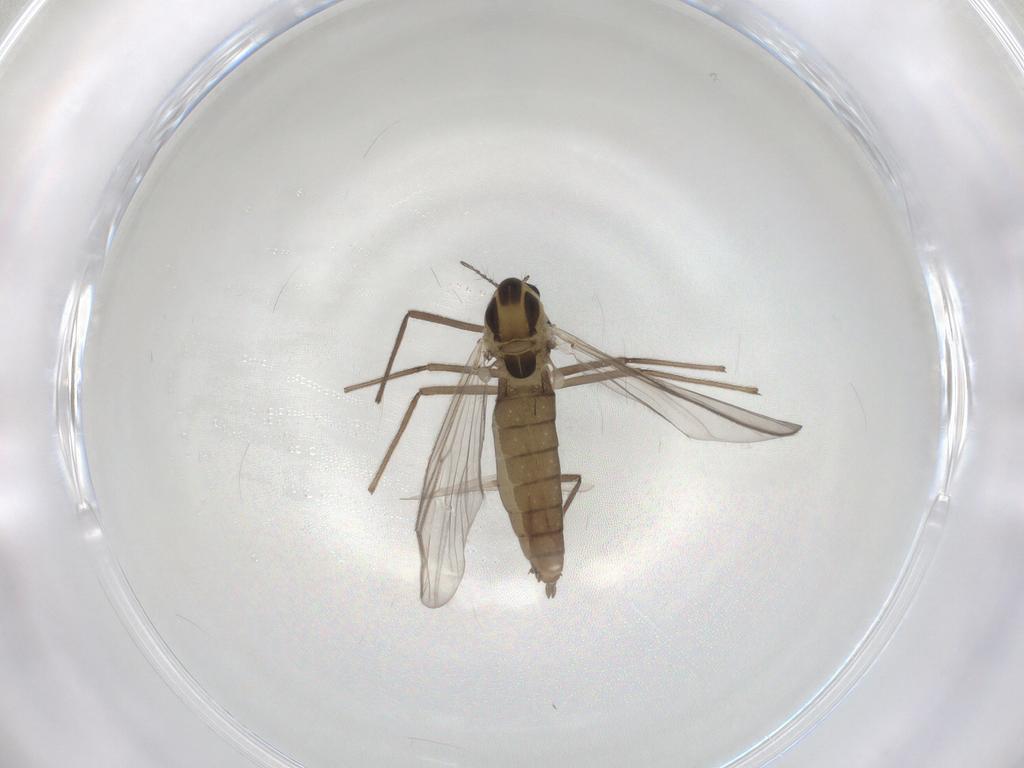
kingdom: Animalia
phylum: Arthropoda
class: Insecta
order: Diptera
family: Chironomidae
